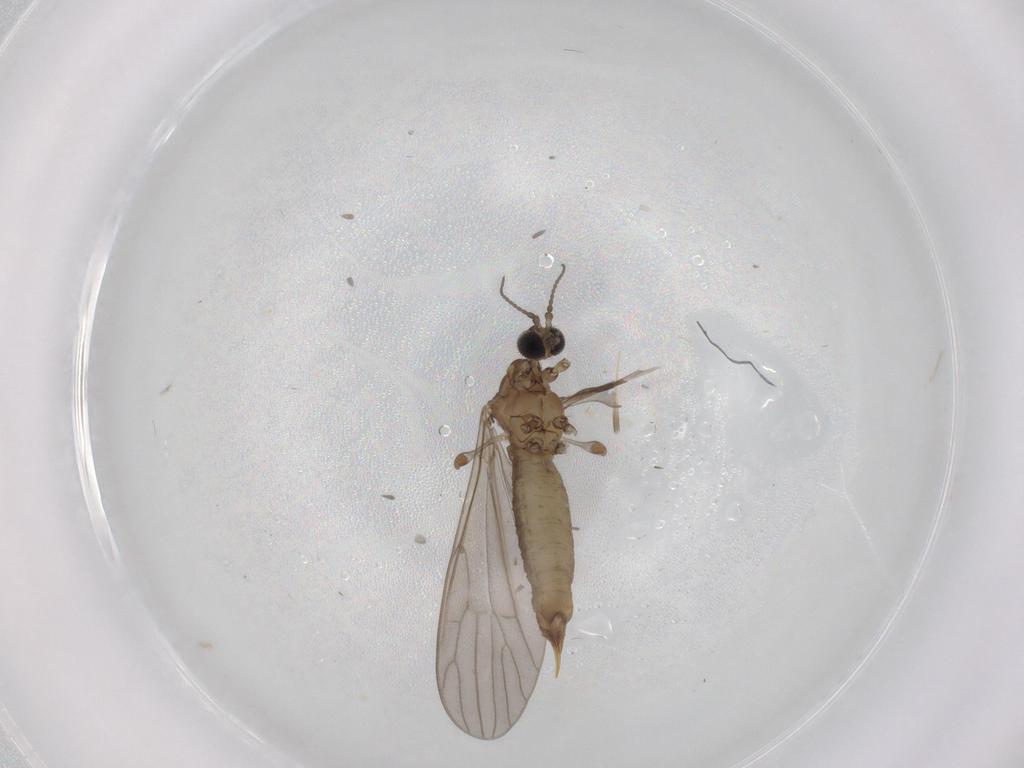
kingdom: Animalia
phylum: Arthropoda
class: Insecta
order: Diptera
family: Limoniidae
